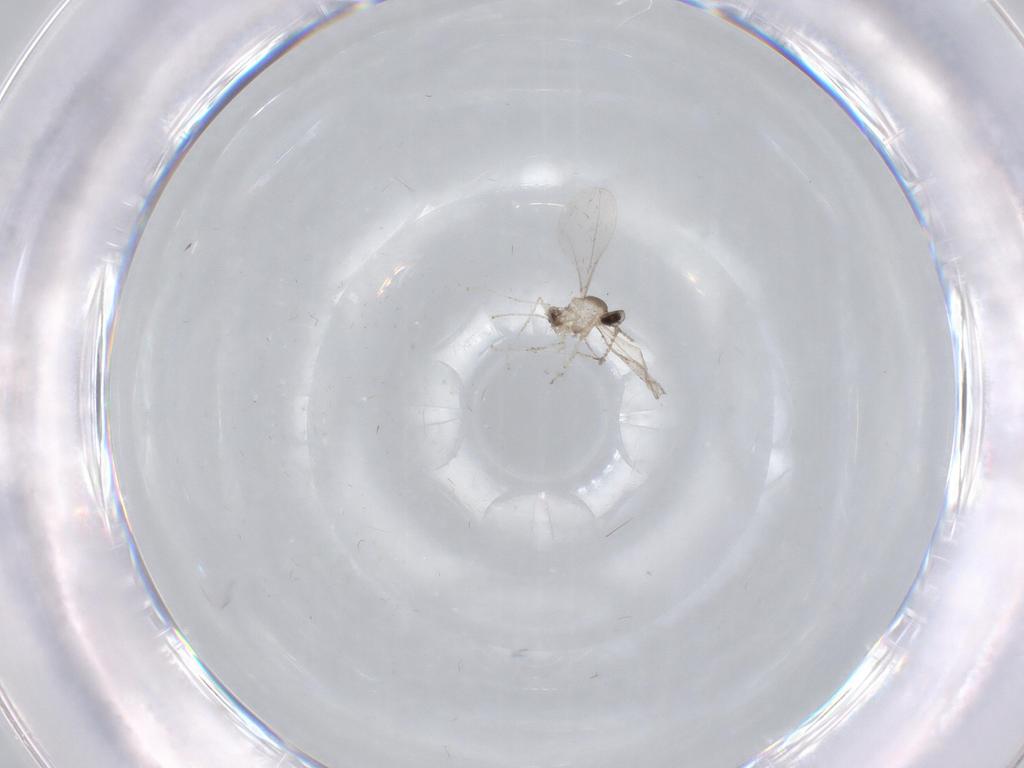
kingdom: Animalia
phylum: Arthropoda
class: Insecta
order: Diptera
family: Cecidomyiidae
